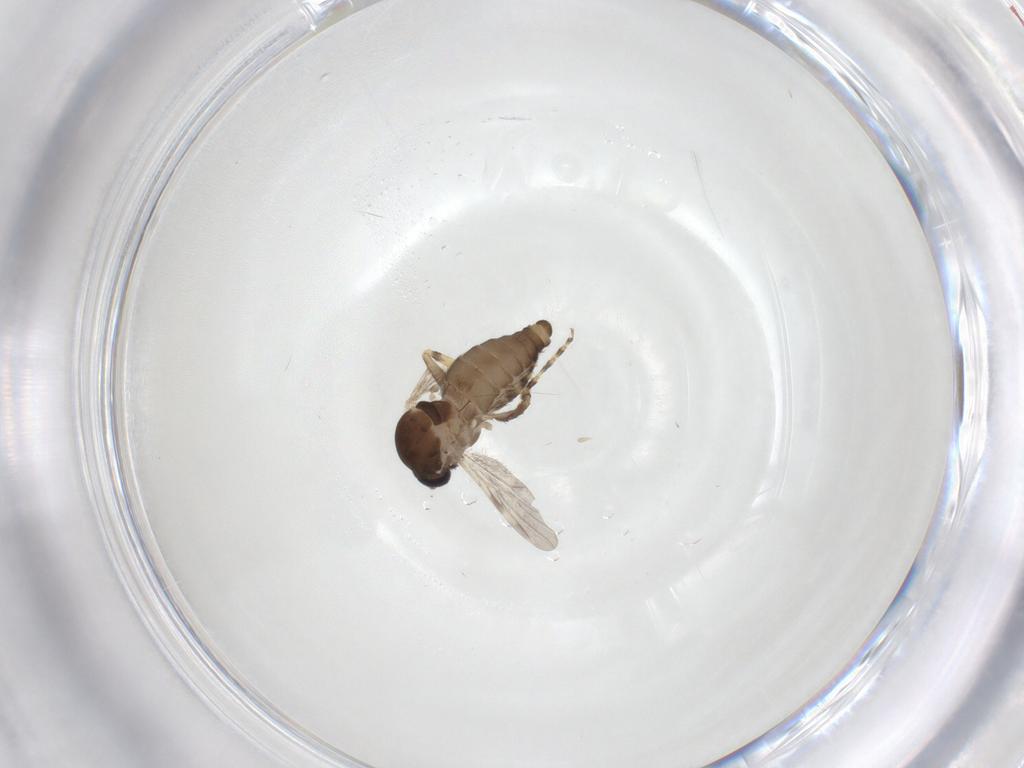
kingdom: Animalia
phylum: Arthropoda
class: Insecta
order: Diptera
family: Ceratopogonidae
